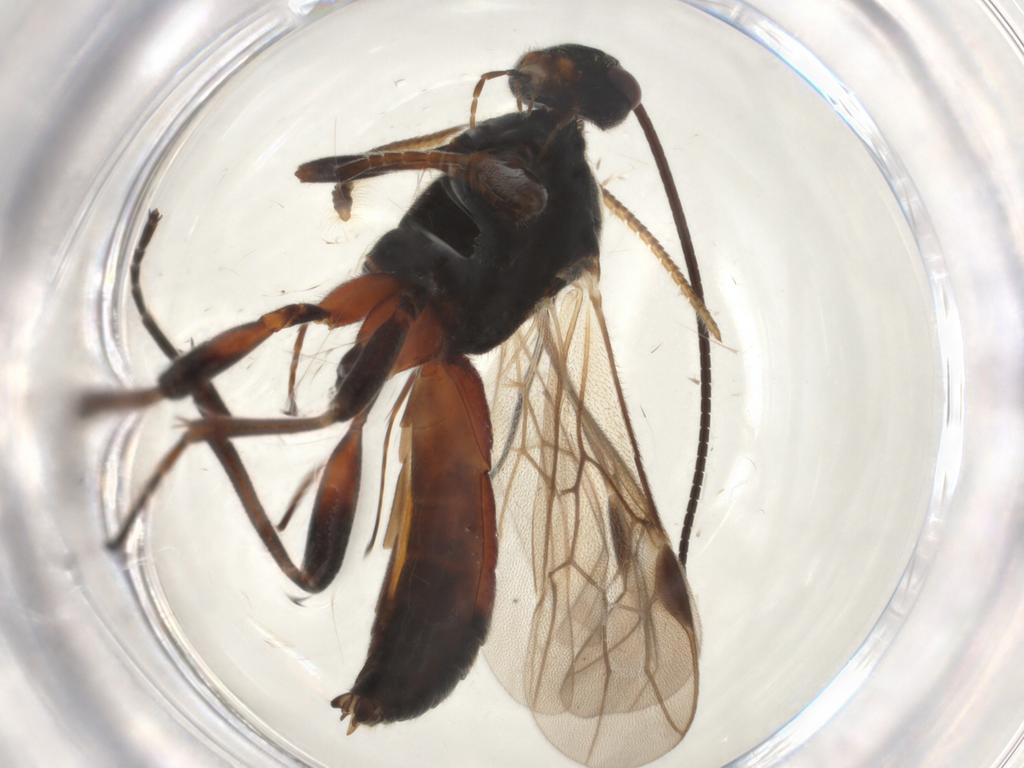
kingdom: Animalia
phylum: Arthropoda
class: Insecta
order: Hymenoptera
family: Braconidae
